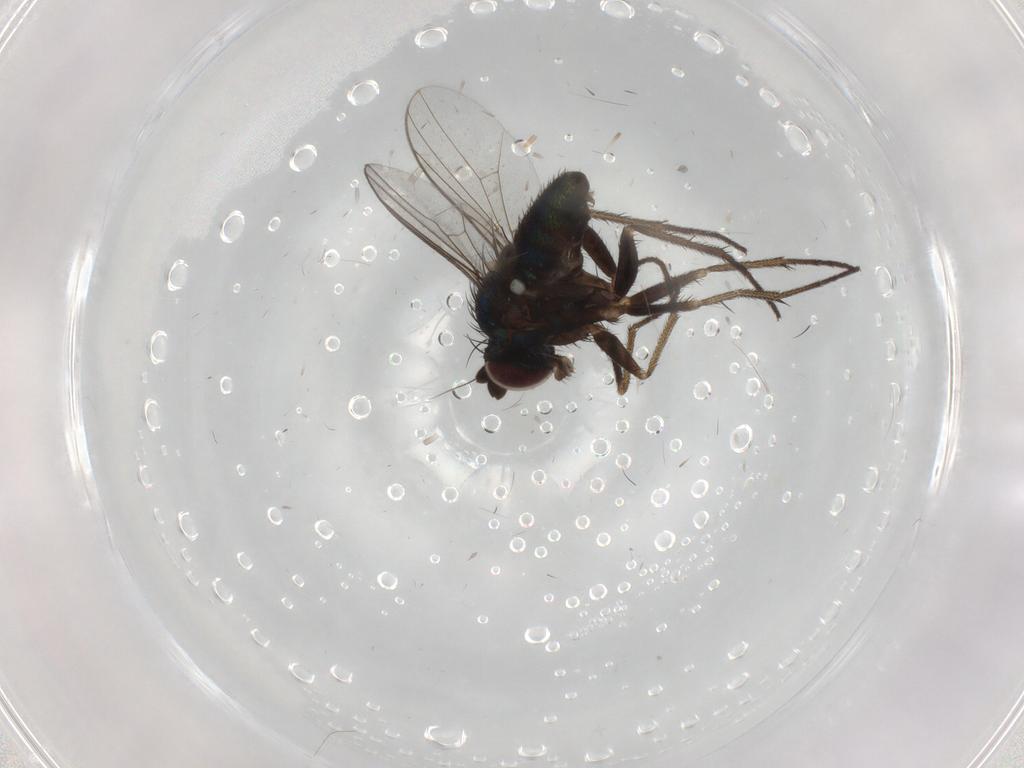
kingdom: Animalia
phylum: Arthropoda
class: Insecta
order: Diptera
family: Dolichopodidae
